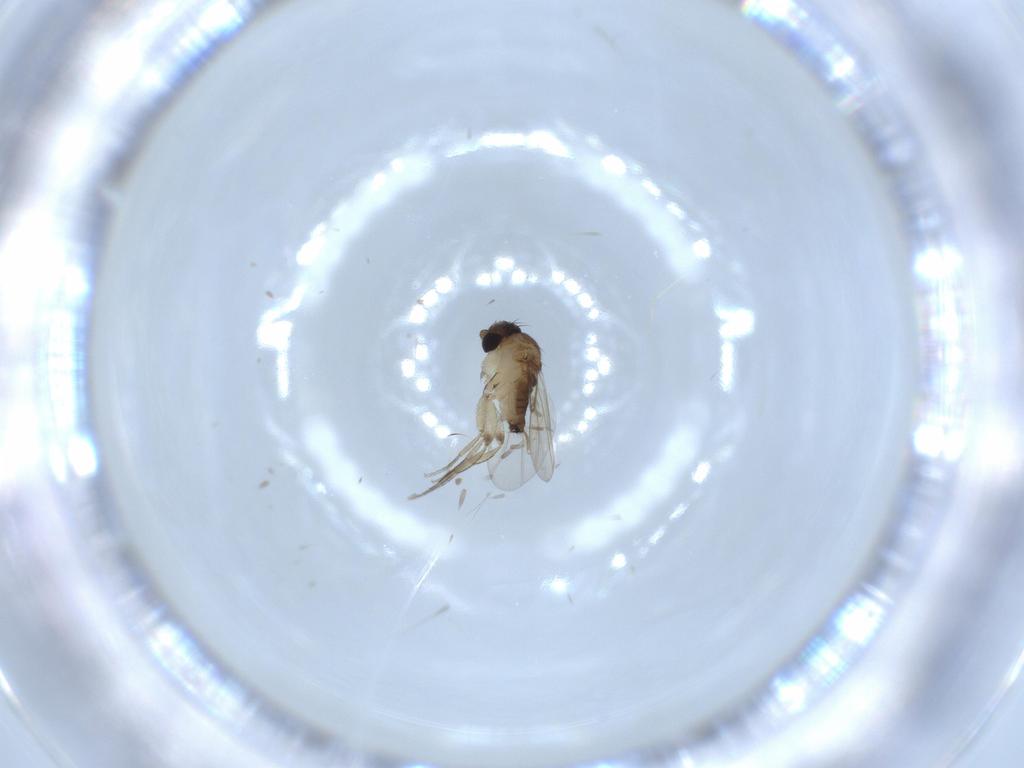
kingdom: Animalia
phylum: Arthropoda
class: Insecta
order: Diptera
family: Phoridae
